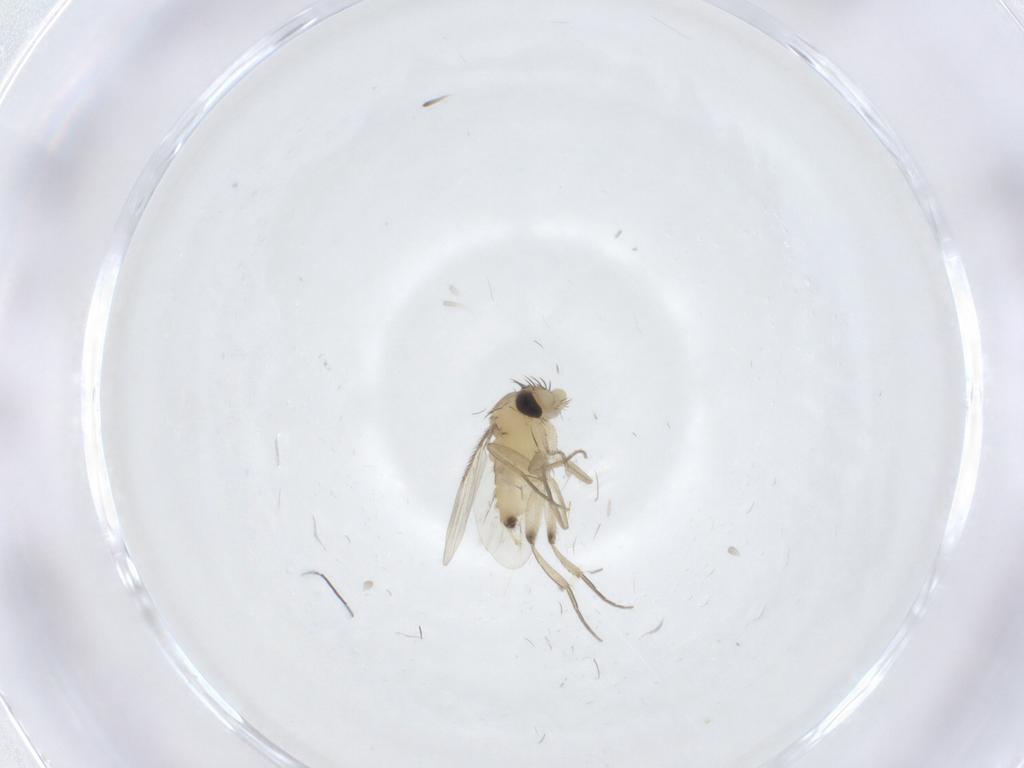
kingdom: Animalia
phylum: Arthropoda
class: Insecta
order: Diptera
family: Phoridae
